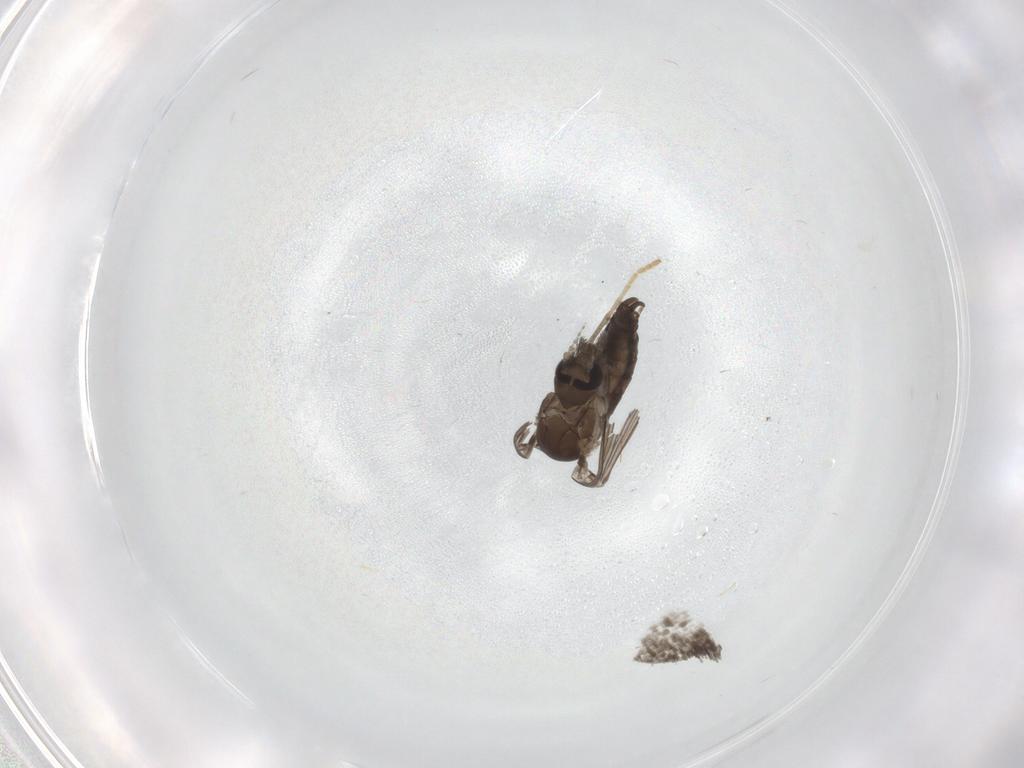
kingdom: Animalia
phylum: Arthropoda
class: Insecta
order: Diptera
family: Psychodidae
